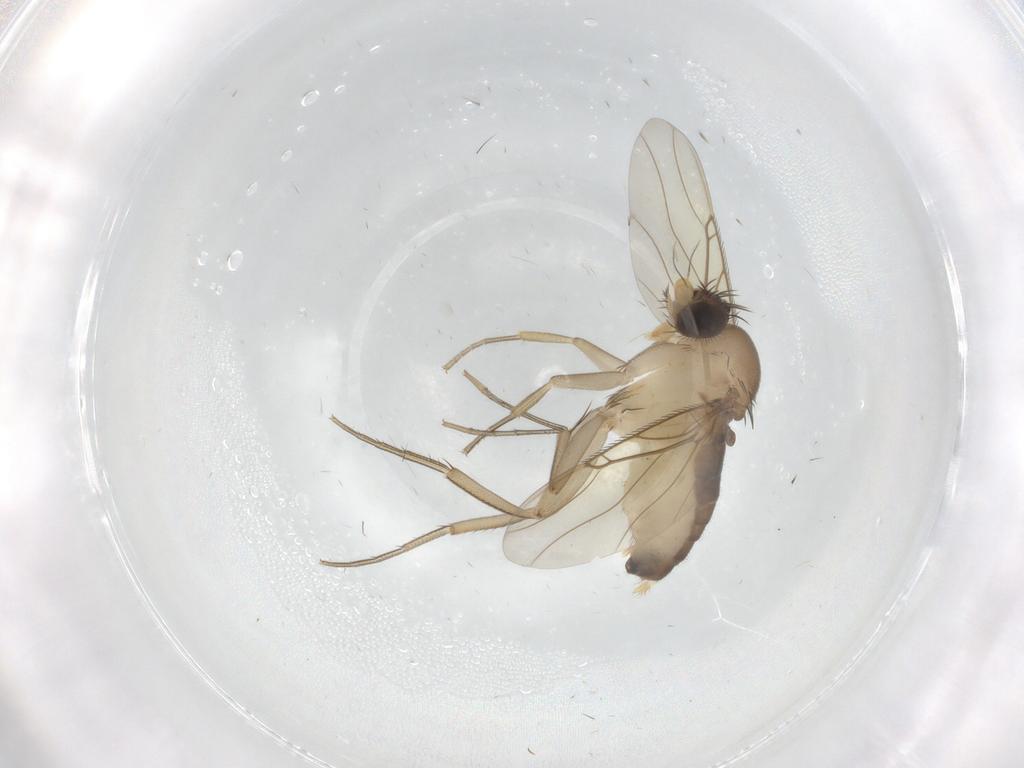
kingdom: Animalia
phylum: Arthropoda
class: Insecta
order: Diptera
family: Phoridae
